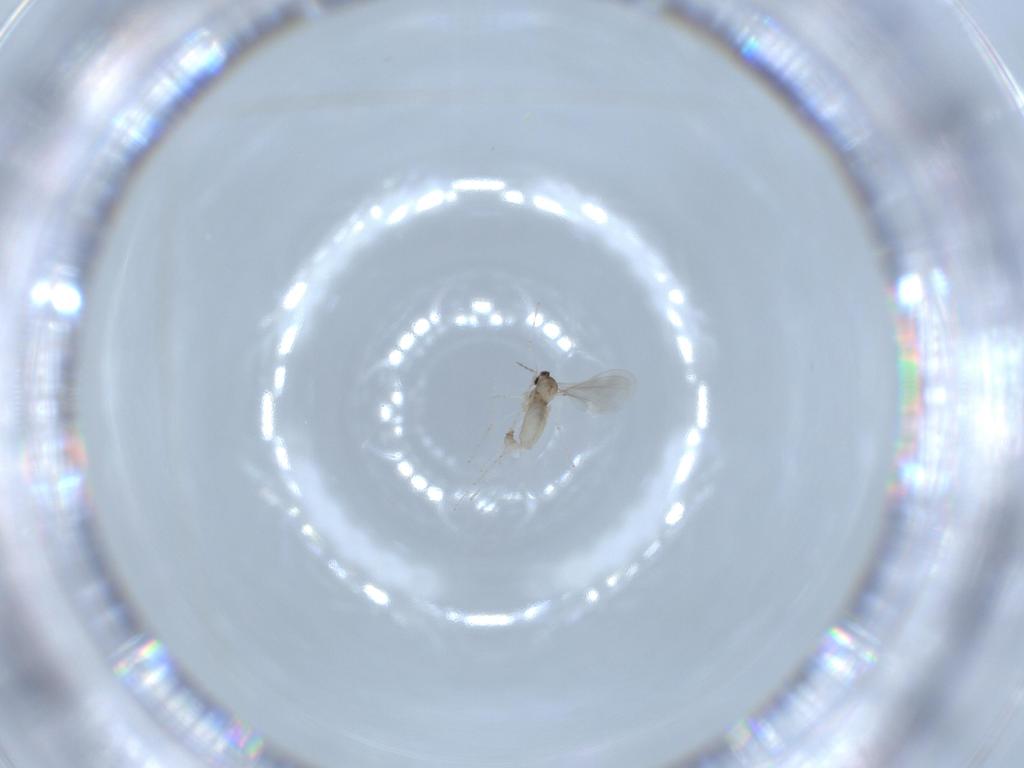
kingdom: Animalia
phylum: Arthropoda
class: Insecta
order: Diptera
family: Cecidomyiidae
